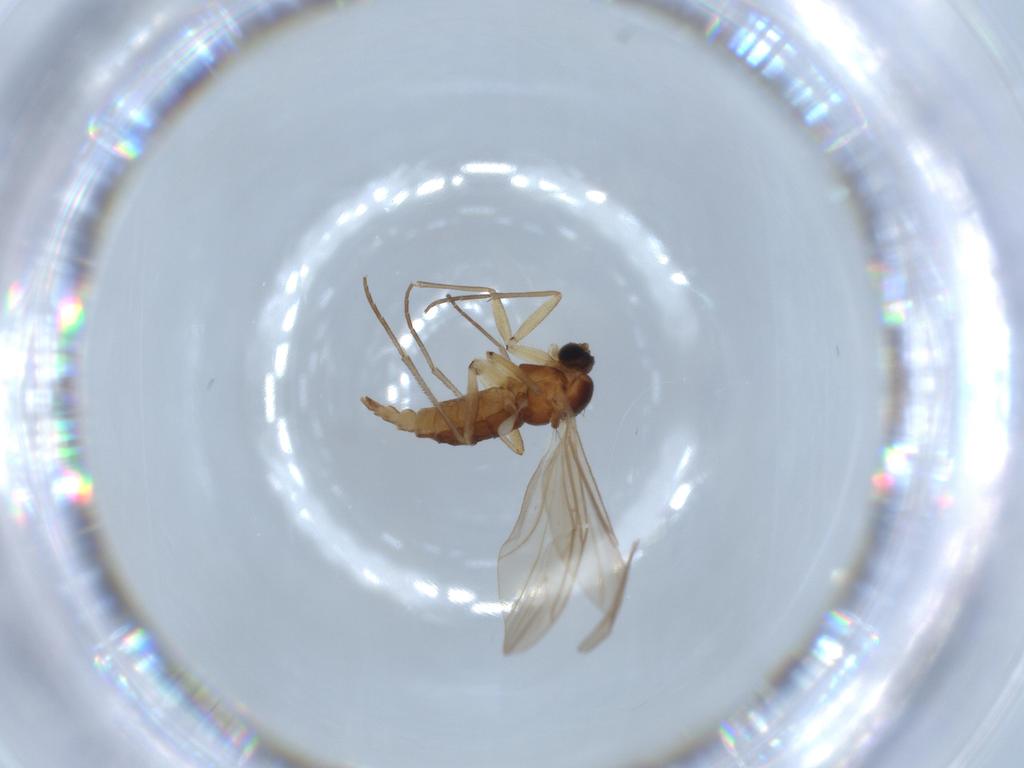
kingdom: Animalia
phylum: Arthropoda
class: Insecta
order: Diptera
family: Sciaridae
